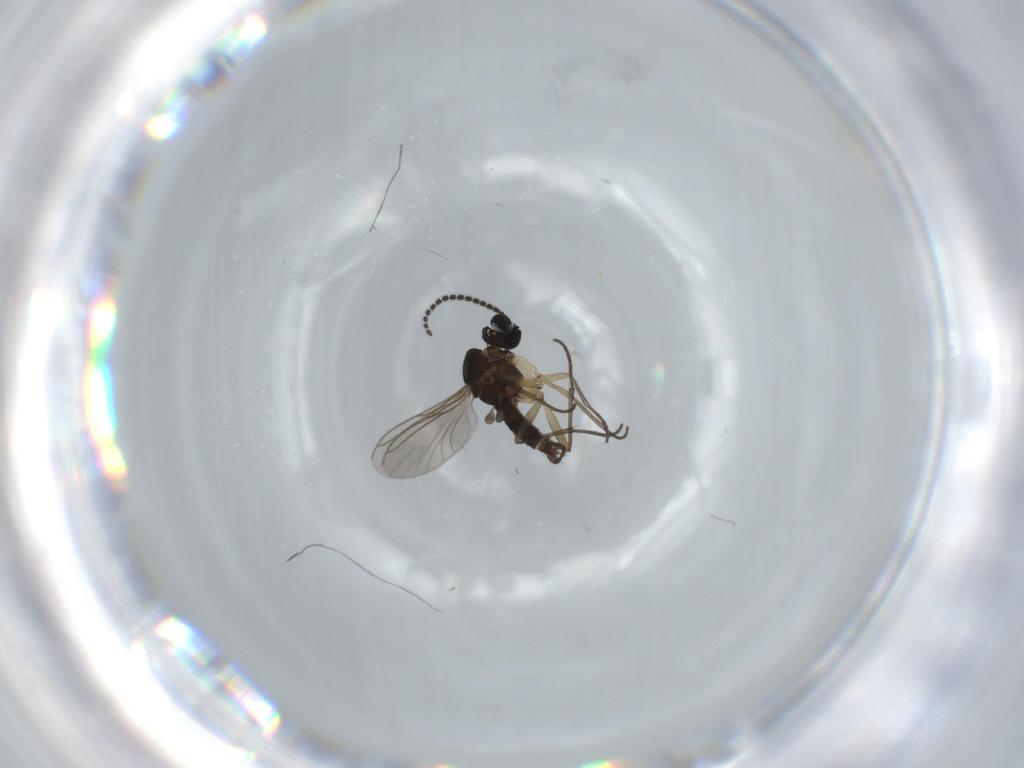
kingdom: Animalia
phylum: Arthropoda
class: Insecta
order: Diptera
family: Sciaridae
